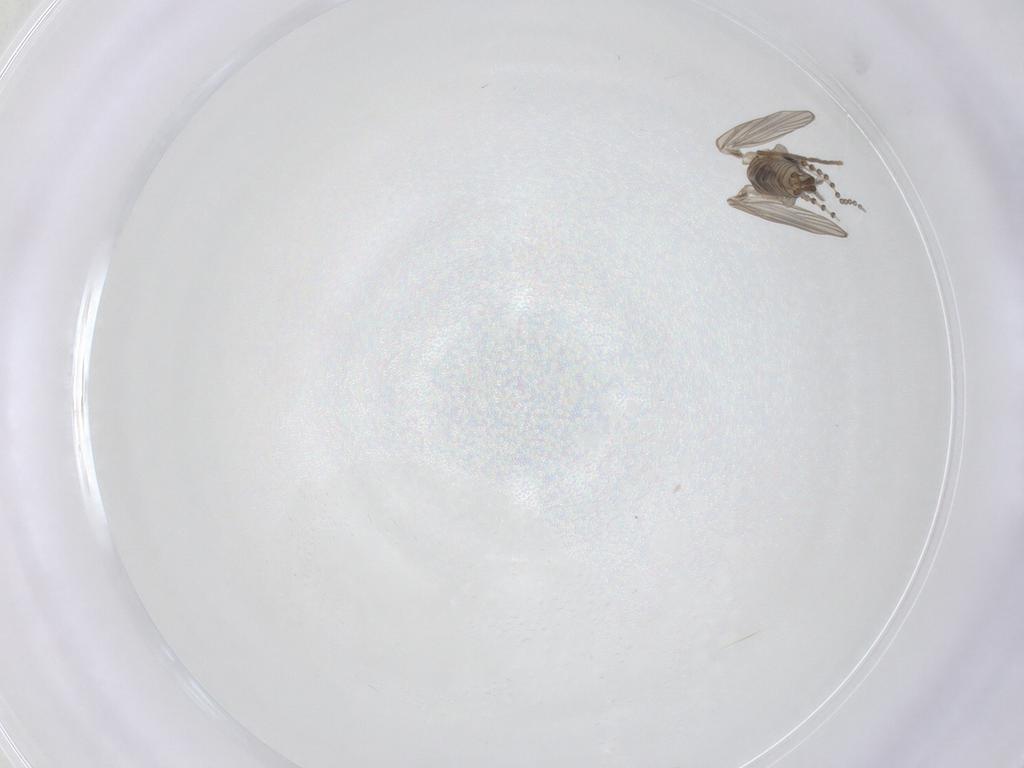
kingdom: Animalia
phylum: Arthropoda
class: Insecta
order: Diptera
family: Psychodidae
